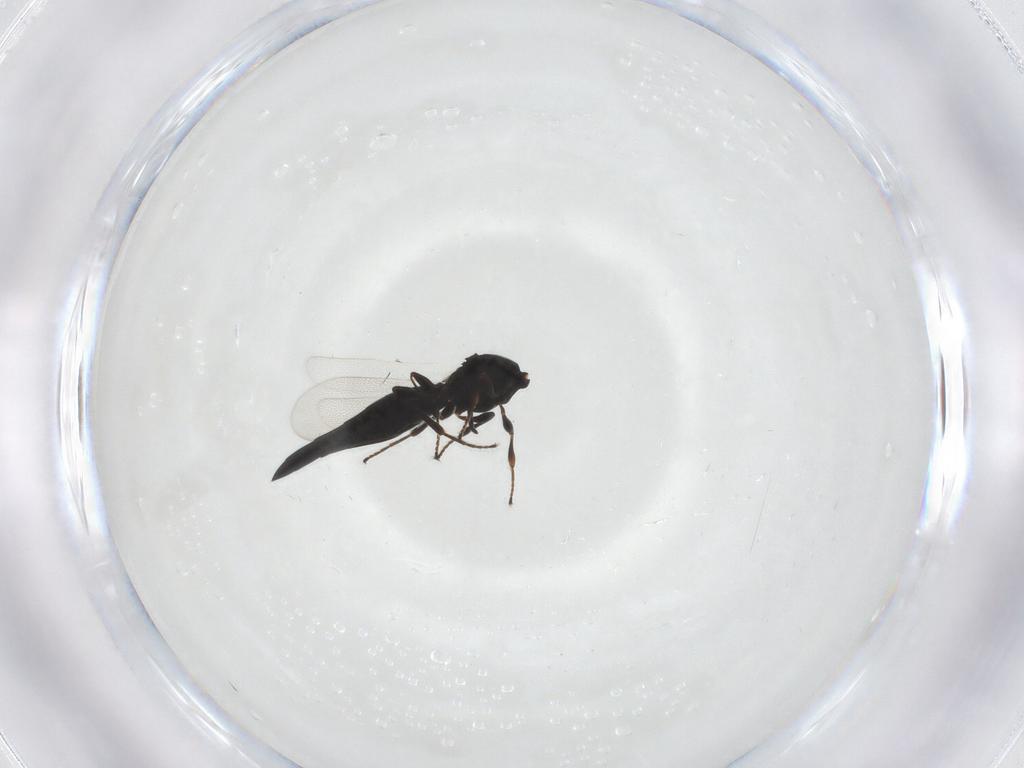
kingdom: Animalia
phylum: Arthropoda
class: Insecta
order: Hymenoptera
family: Platygastridae
